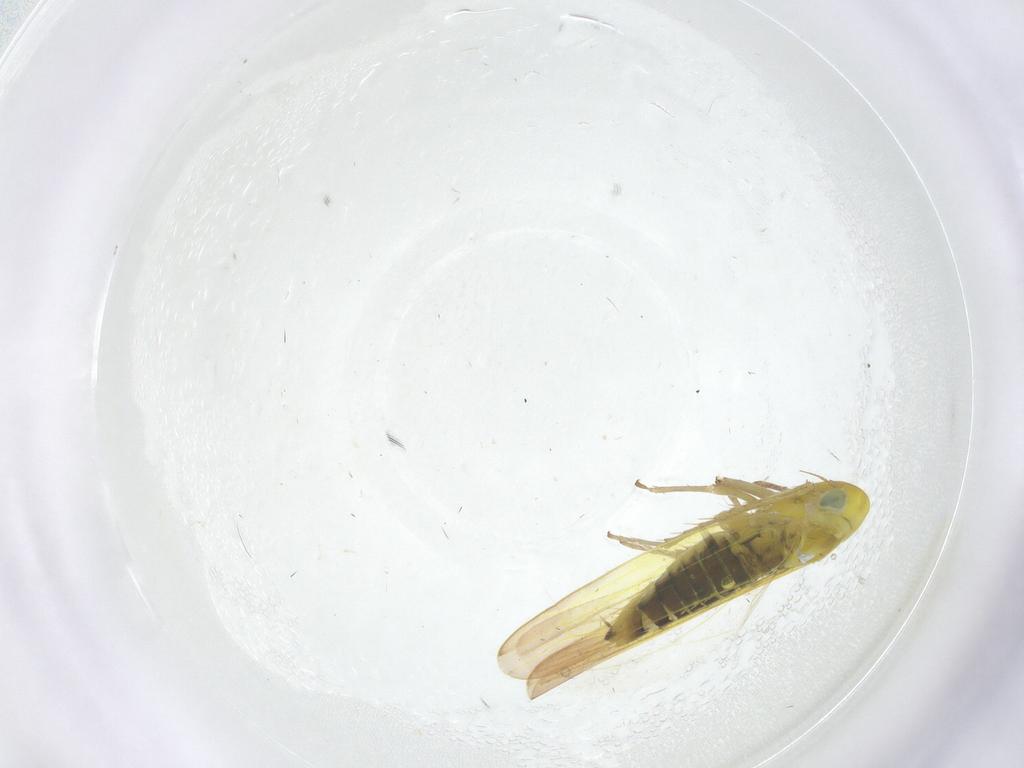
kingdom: Animalia
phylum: Arthropoda
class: Insecta
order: Hemiptera
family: Cicadellidae
